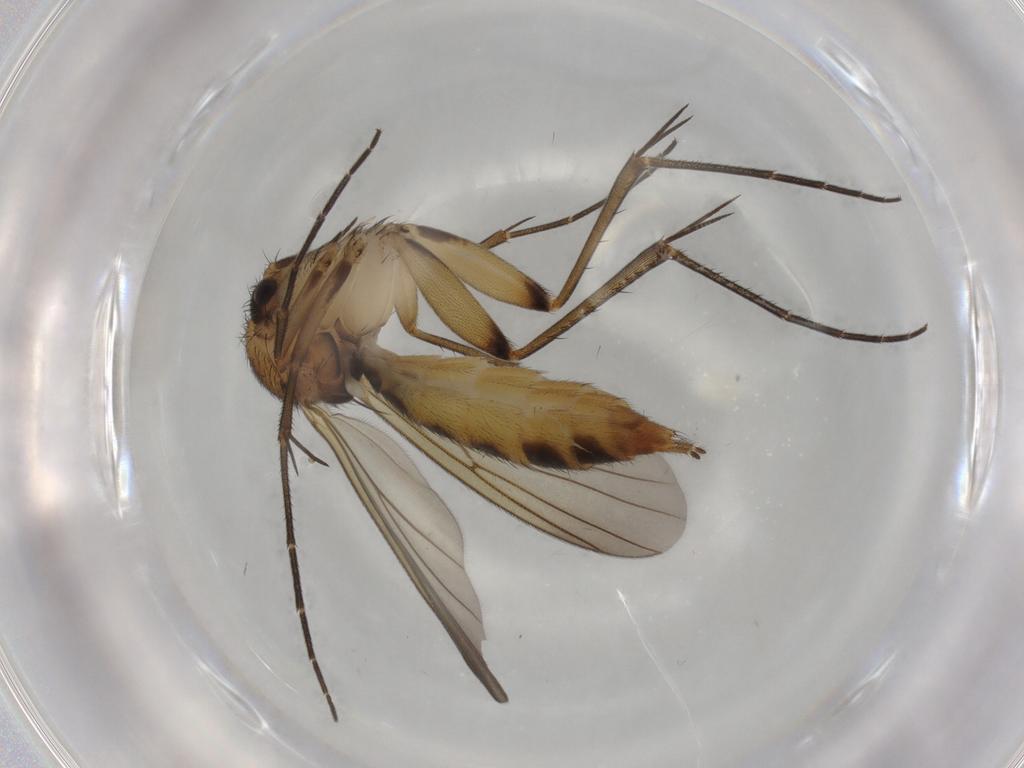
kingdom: Animalia
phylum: Arthropoda
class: Insecta
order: Diptera
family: Mycetophilidae
